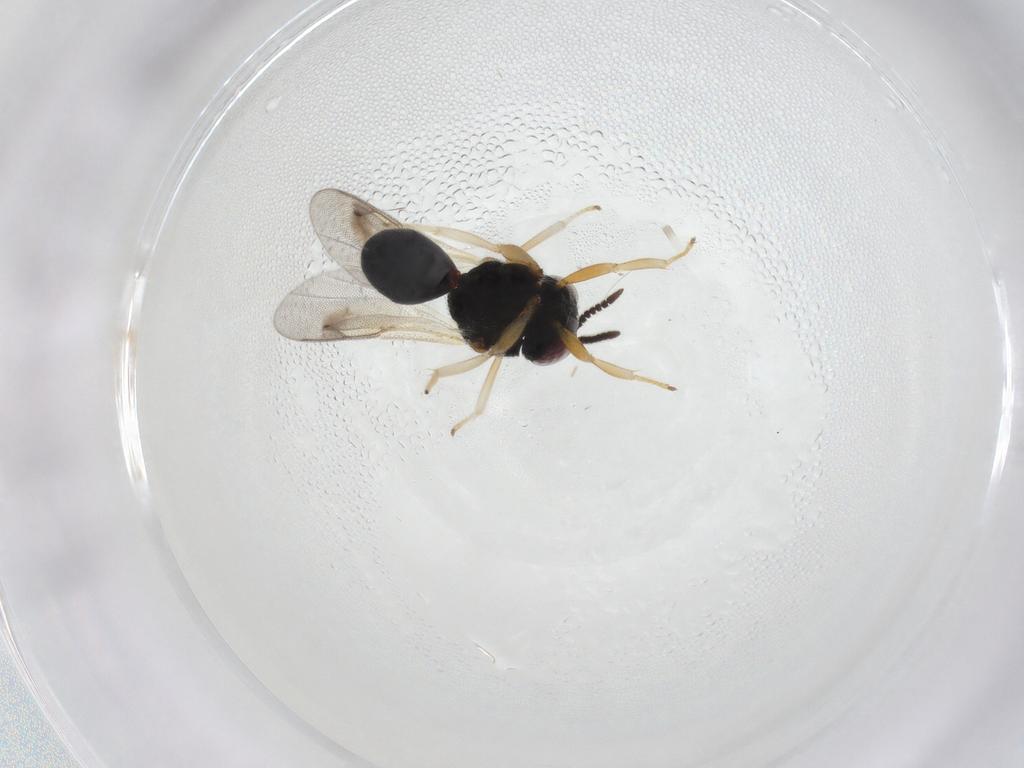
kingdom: Animalia
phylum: Arthropoda
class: Insecta
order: Hymenoptera
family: Eurytomidae
